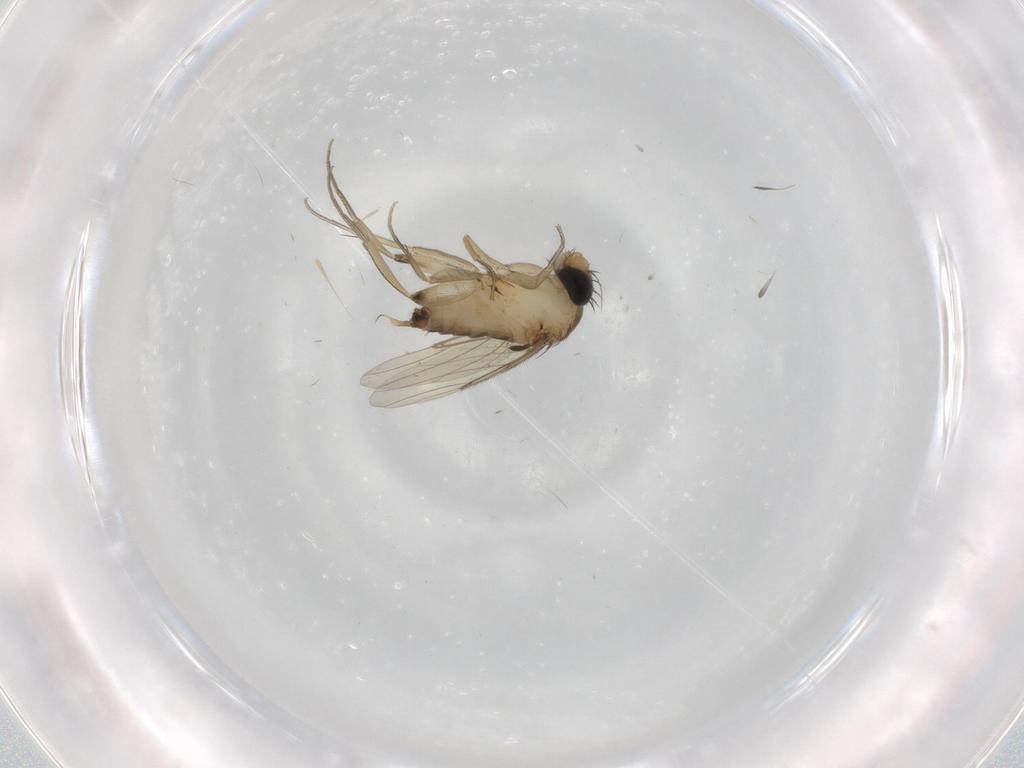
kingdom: Animalia
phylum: Arthropoda
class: Insecta
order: Diptera
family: Phoridae
